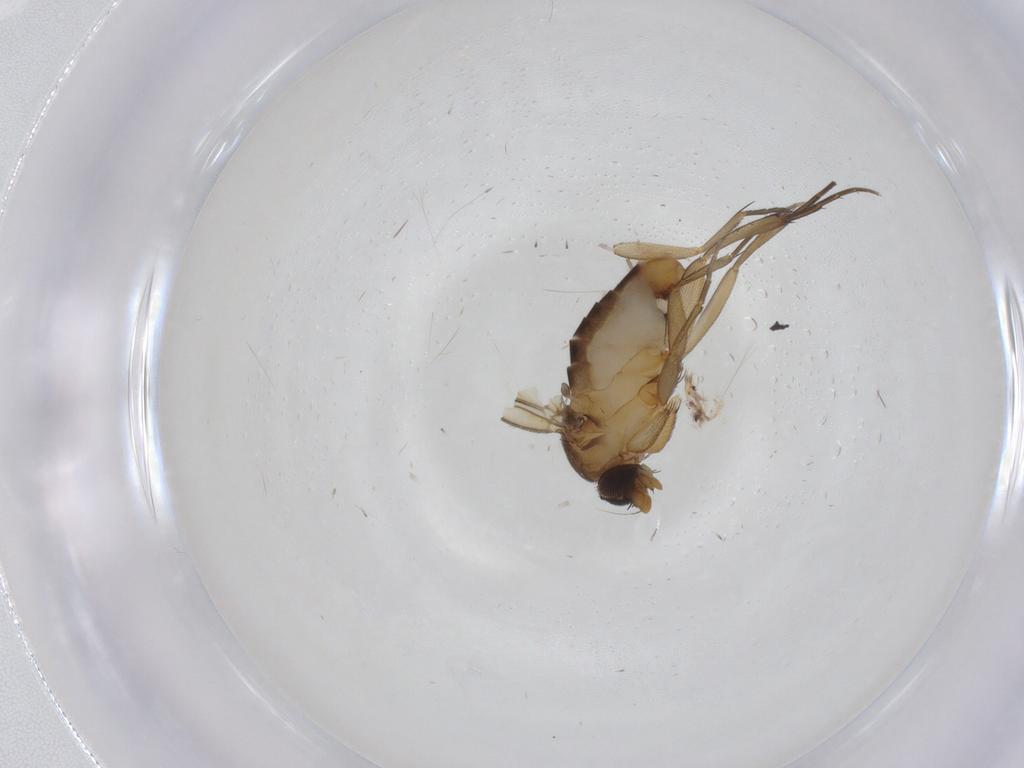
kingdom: Animalia
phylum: Arthropoda
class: Insecta
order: Diptera
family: Phoridae
